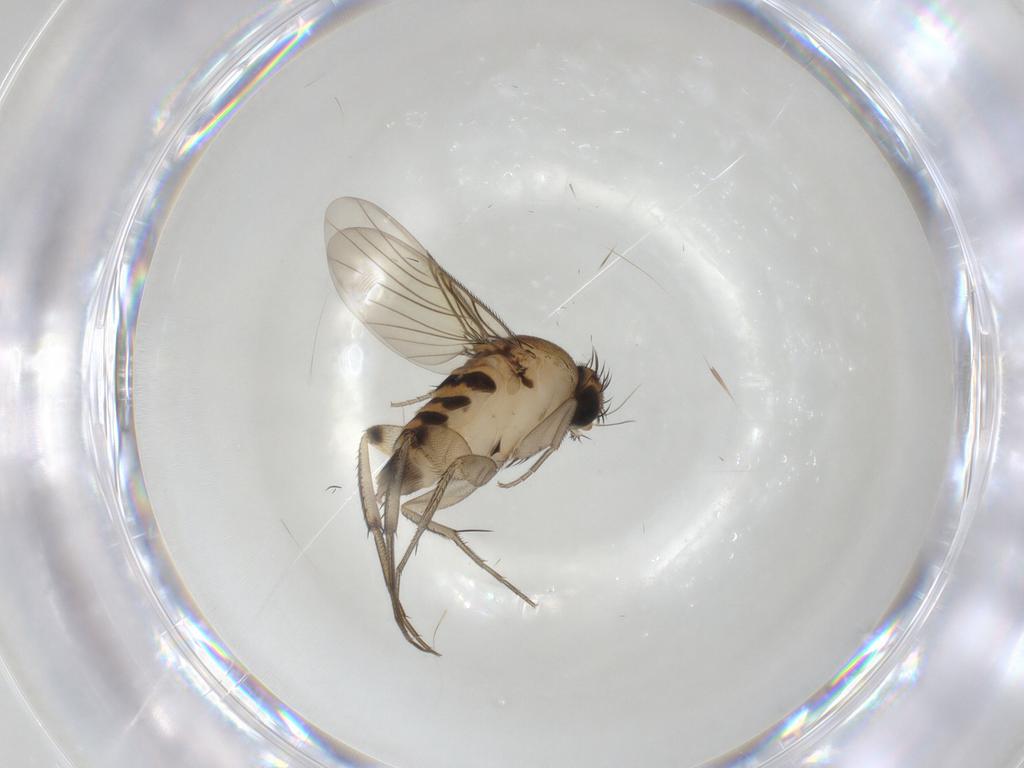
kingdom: Animalia
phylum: Arthropoda
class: Insecta
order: Diptera
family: Phoridae
